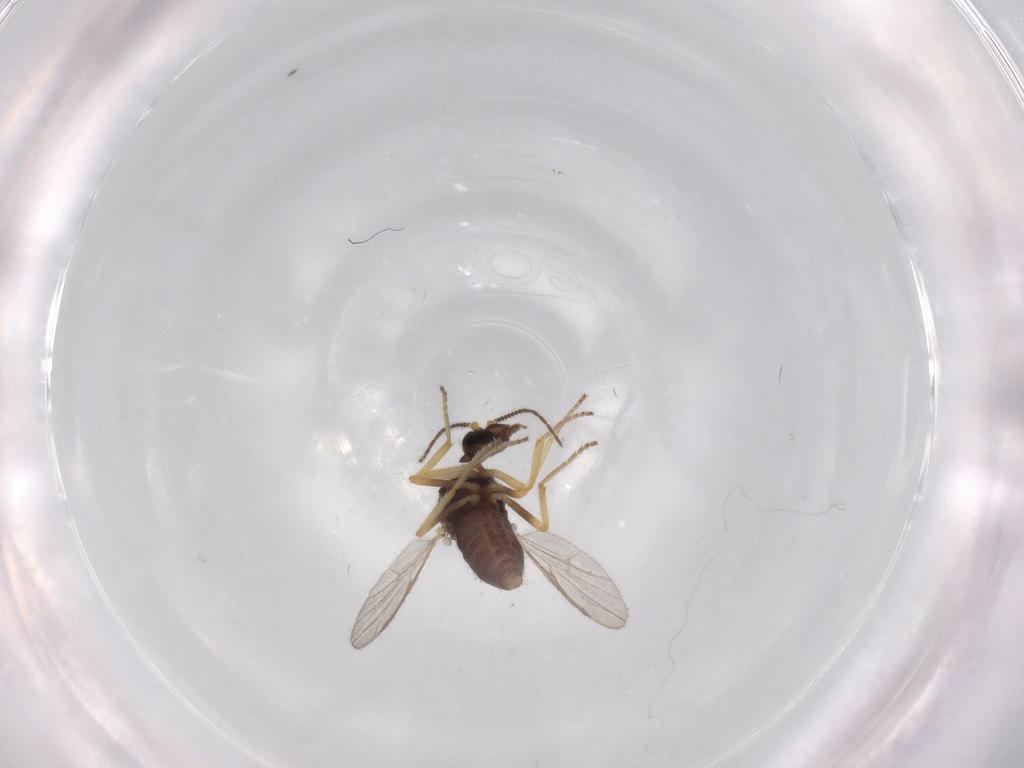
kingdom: Animalia
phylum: Arthropoda
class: Insecta
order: Diptera
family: Ceratopogonidae
